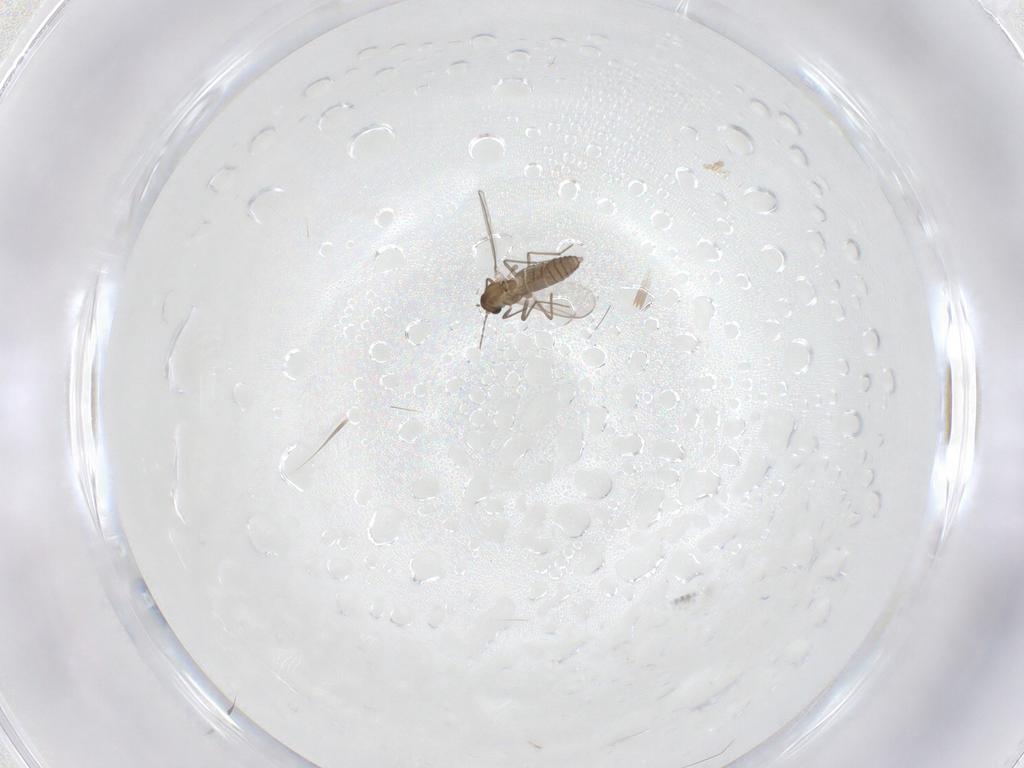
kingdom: Animalia
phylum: Arthropoda
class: Insecta
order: Diptera
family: Chironomidae
